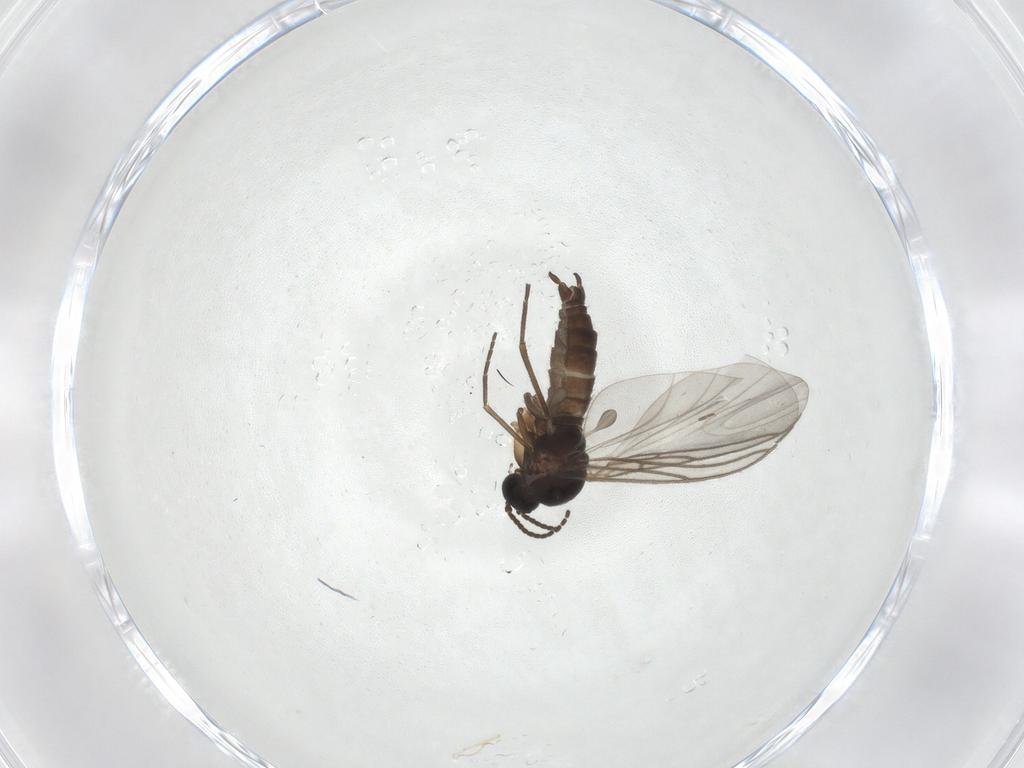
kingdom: Animalia
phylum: Arthropoda
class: Insecta
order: Diptera
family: Sciaridae
